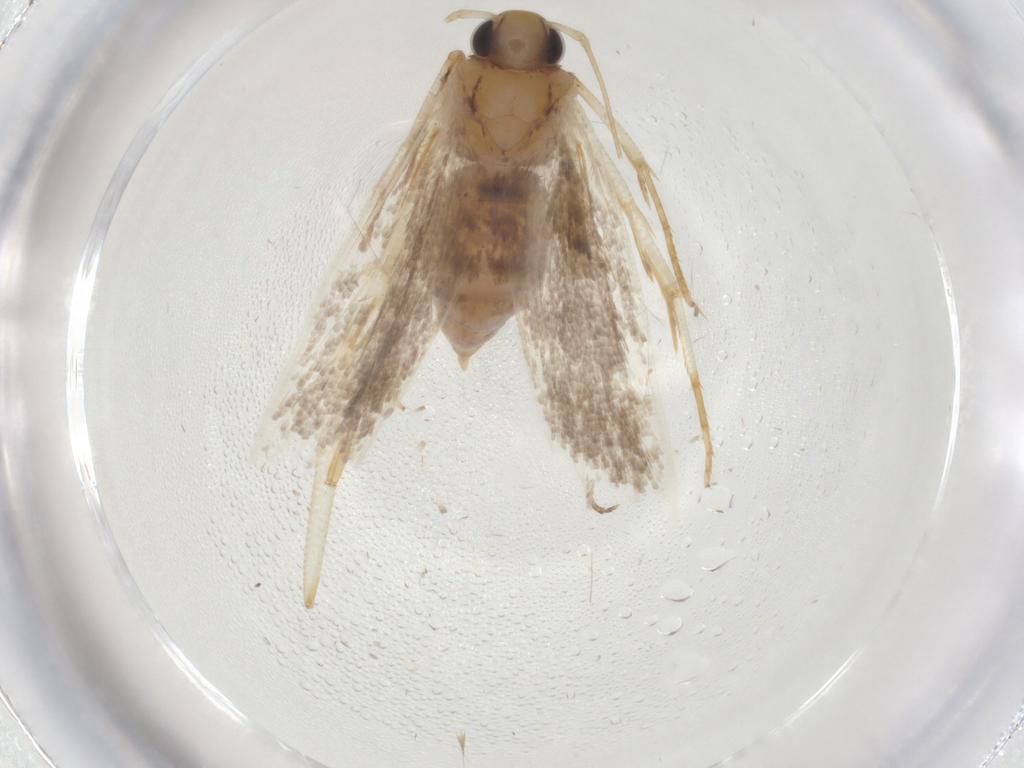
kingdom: Animalia
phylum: Arthropoda
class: Insecta
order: Lepidoptera
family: Gelechiidae
